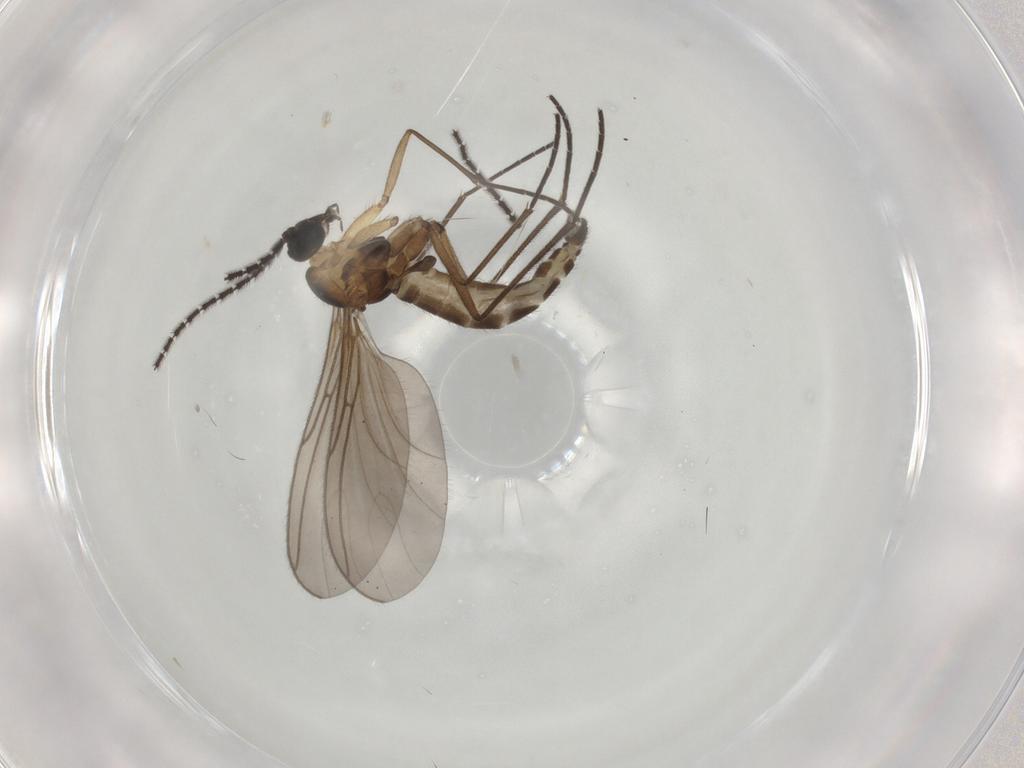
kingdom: Animalia
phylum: Arthropoda
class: Insecta
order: Diptera
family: Sciaridae
